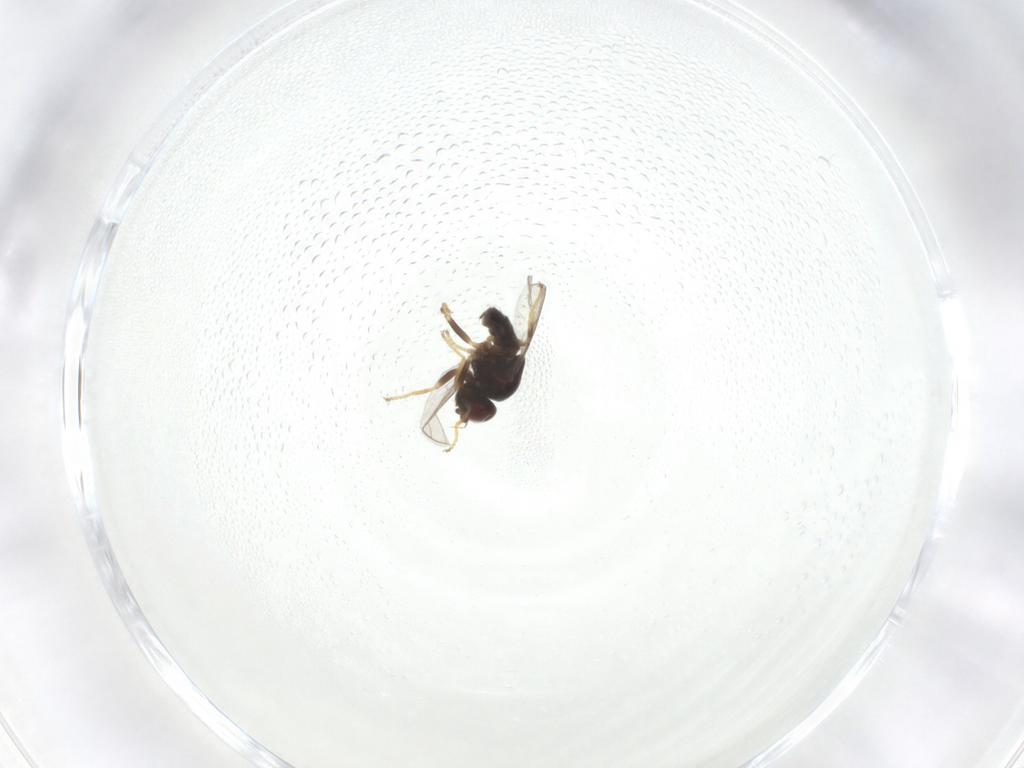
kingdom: Animalia
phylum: Arthropoda
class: Insecta
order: Diptera
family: Chloropidae
